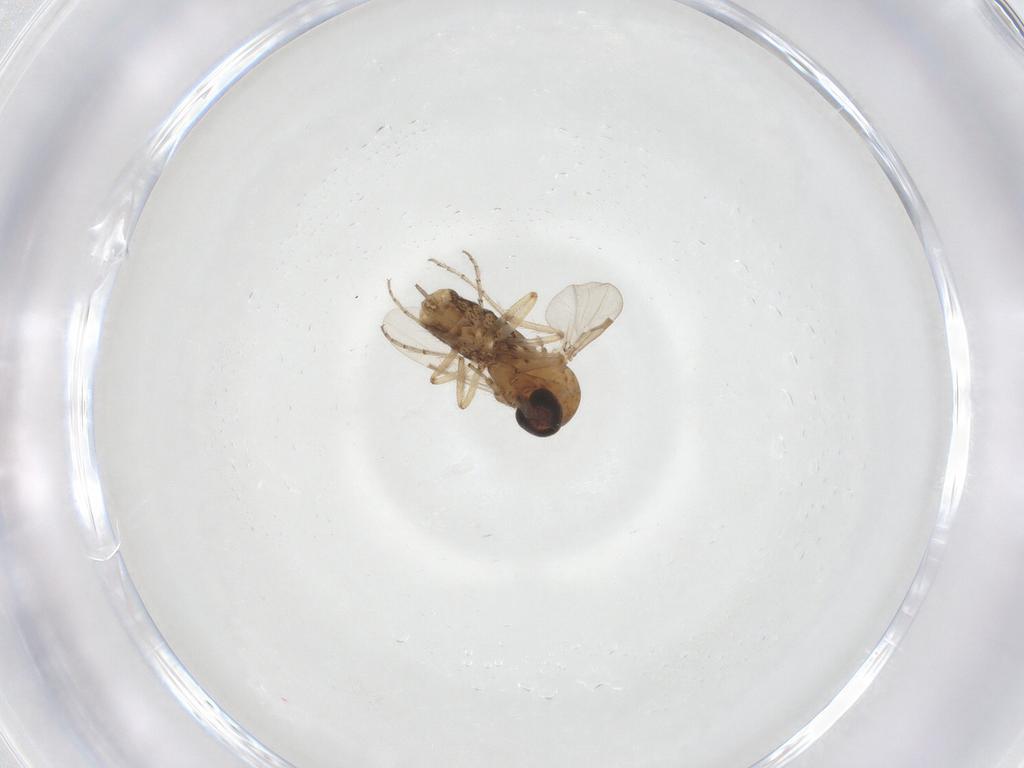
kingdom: Animalia
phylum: Arthropoda
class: Insecta
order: Diptera
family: Ceratopogonidae
